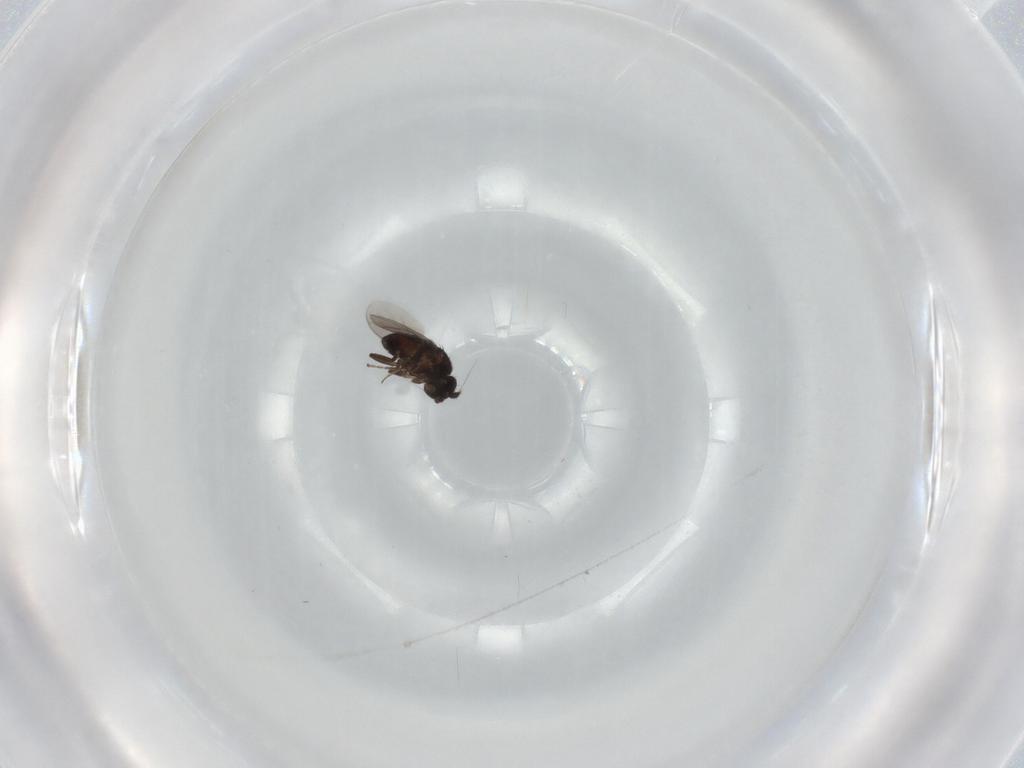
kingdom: Animalia
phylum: Arthropoda
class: Insecta
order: Diptera
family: Sphaeroceridae
